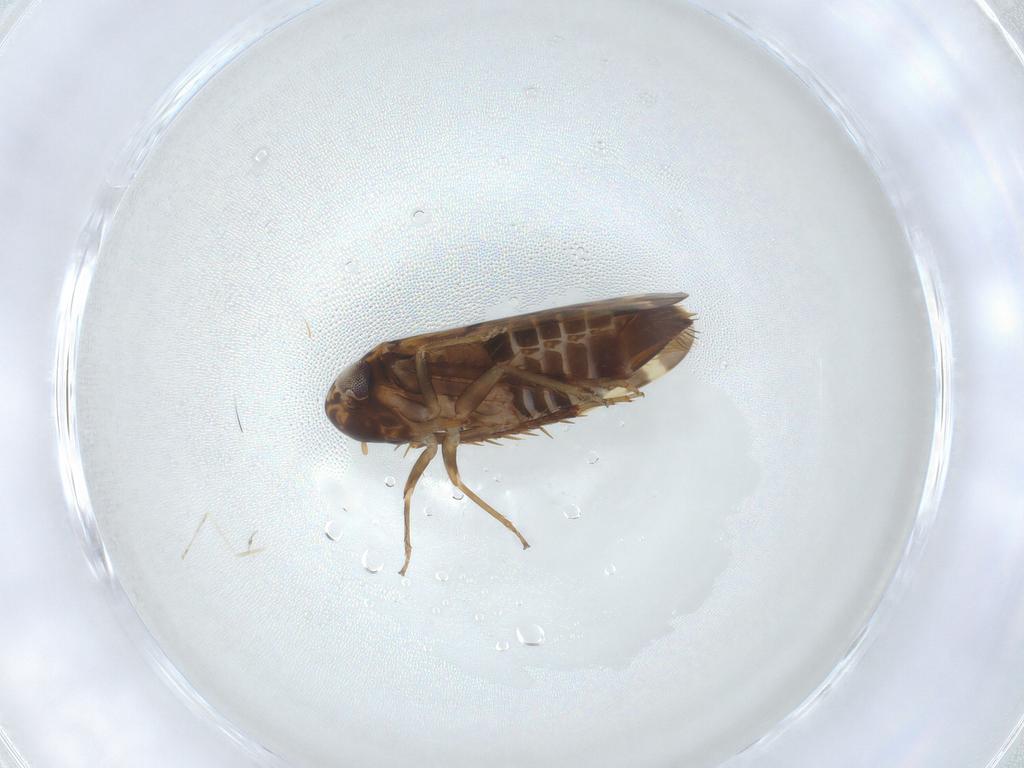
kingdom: Animalia
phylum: Arthropoda
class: Insecta
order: Hemiptera
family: Cicadellidae
